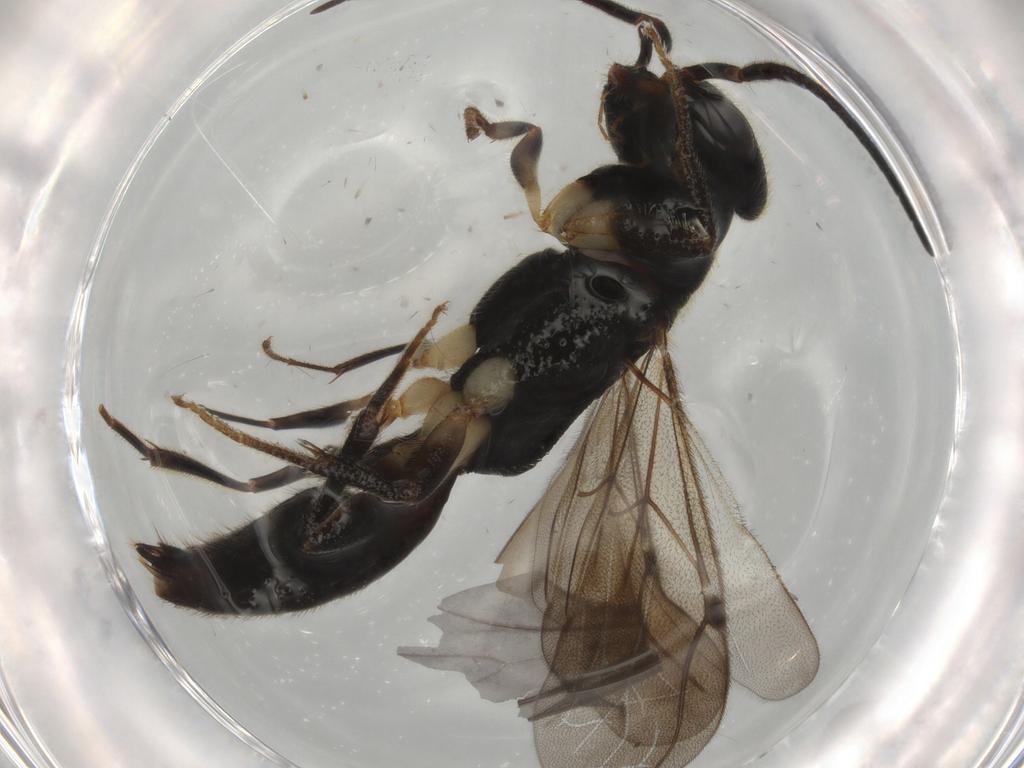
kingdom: Animalia
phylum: Arthropoda
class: Insecta
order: Hymenoptera
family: Bethylidae
